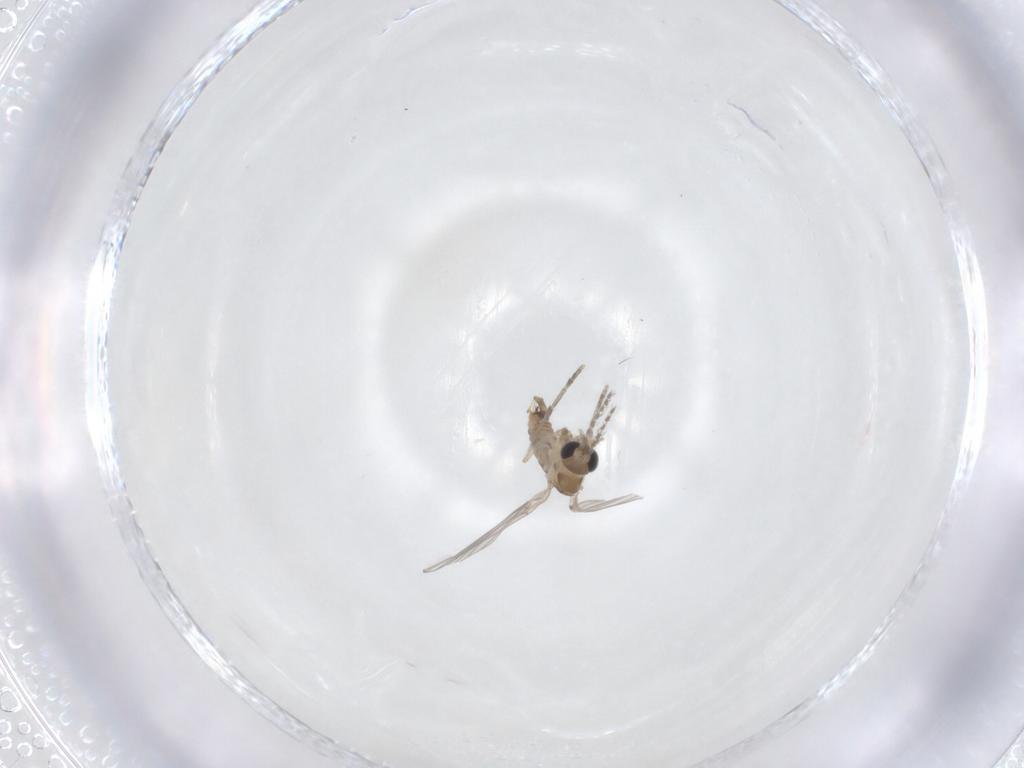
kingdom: Animalia
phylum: Arthropoda
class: Insecta
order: Diptera
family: Psychodidae
